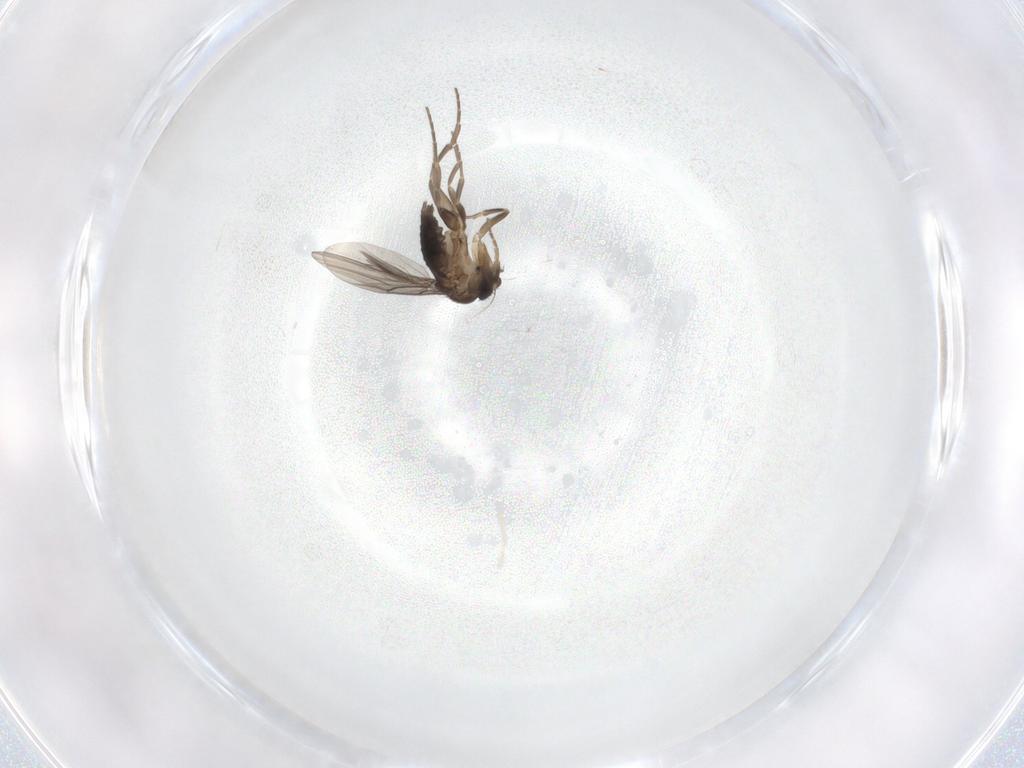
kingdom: Animalia
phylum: Arthropoda
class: Insecta
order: Diptera
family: Ceratopogonidae
